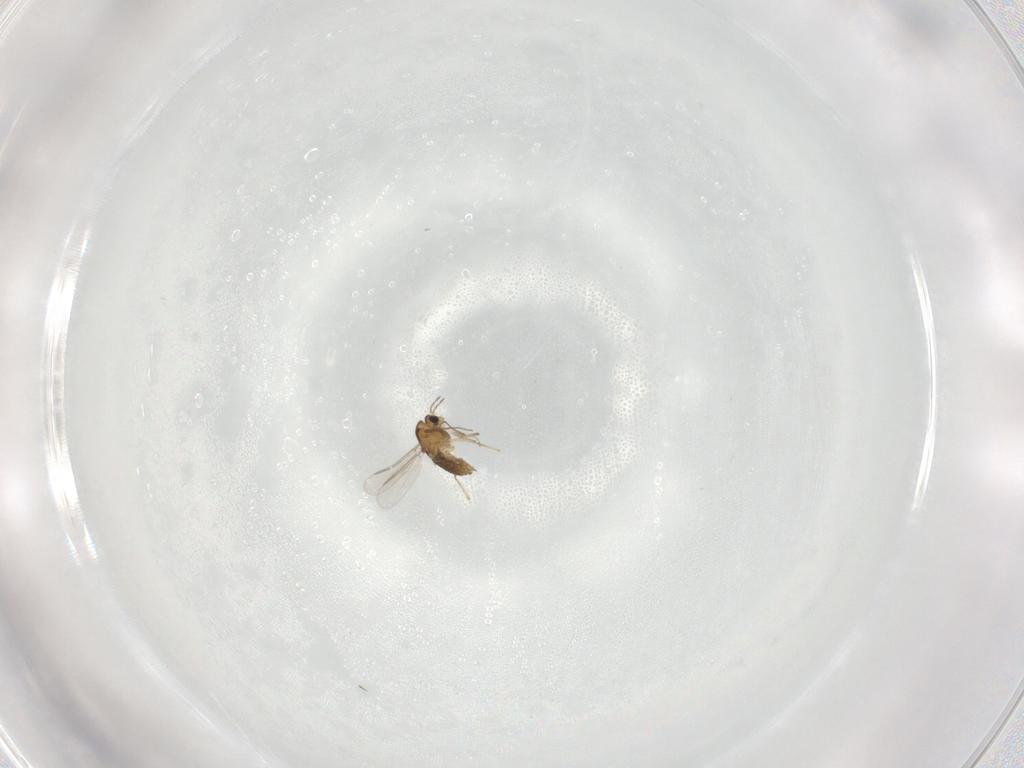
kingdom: Animalia
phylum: Arthropoda
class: Insecta
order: Diptera
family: Chironomidae
